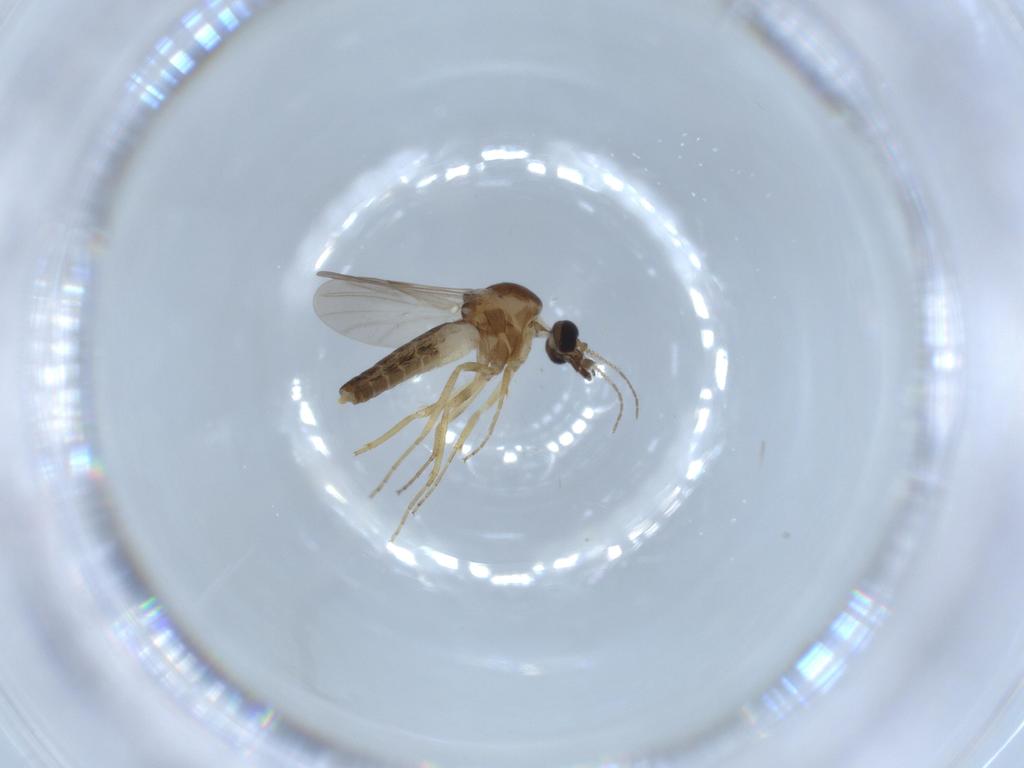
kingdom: Animalia
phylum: Arthropoda
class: Insecta
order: Diptera
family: Ceratopogonidae
